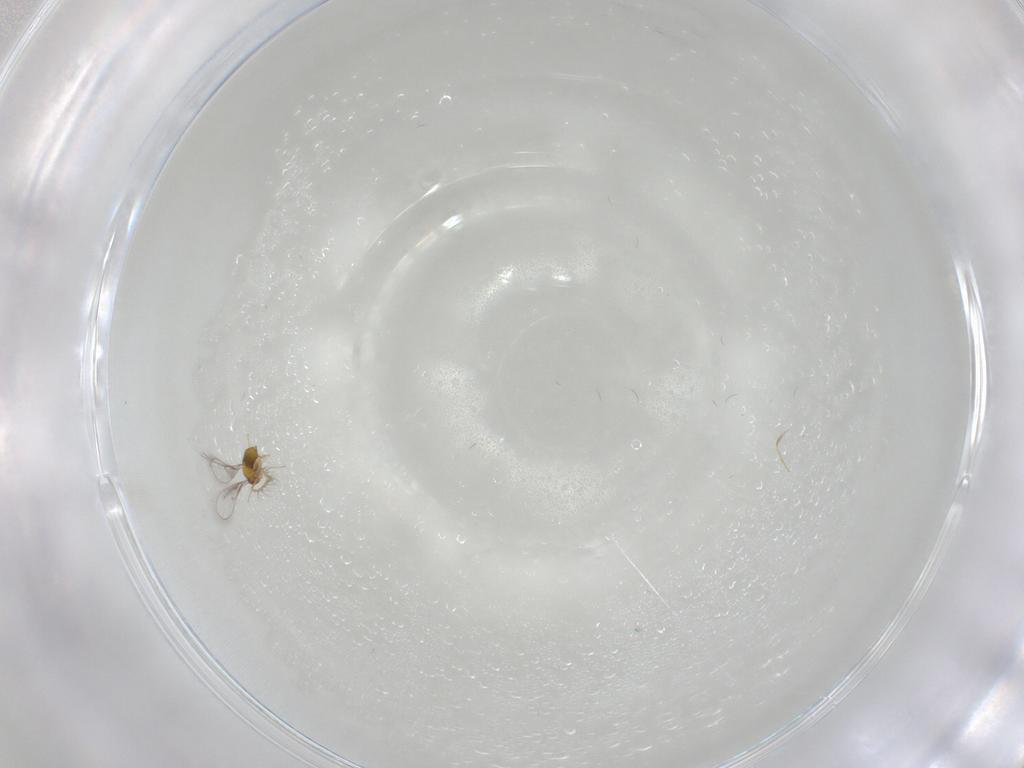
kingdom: Animalia
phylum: Arthropoda
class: Insecta
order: Hymenoptera
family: Trichogrammatidae
